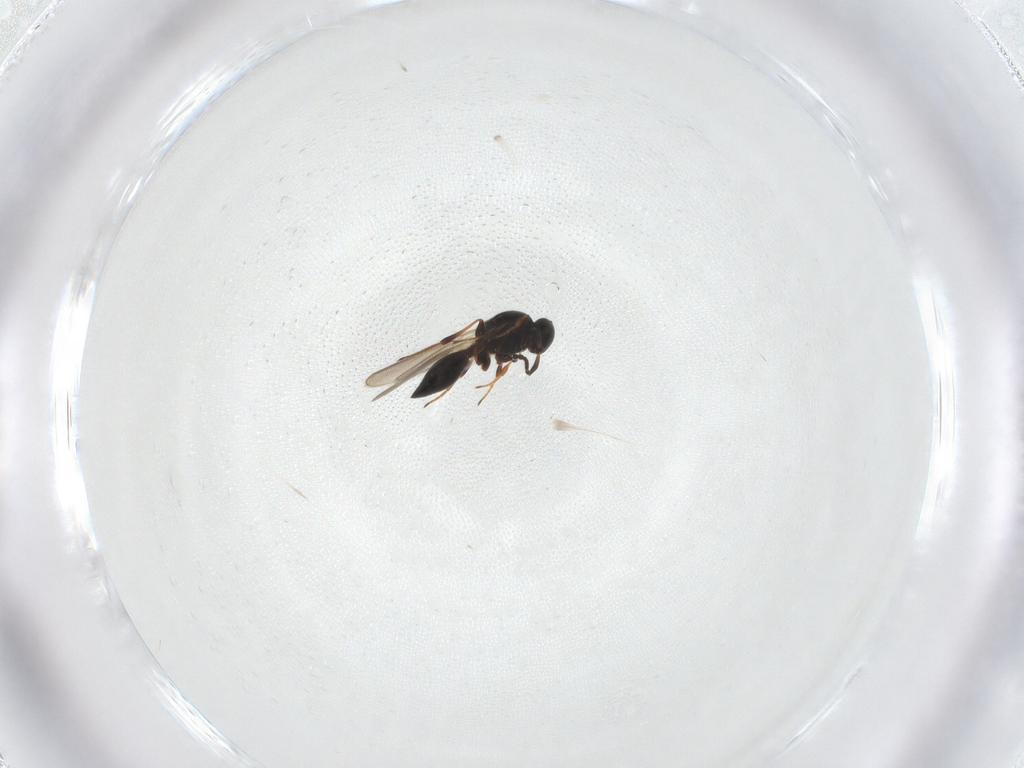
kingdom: Animalia
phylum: Arthropoda
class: Insecta
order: Hymenoptera
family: Platygastridae
